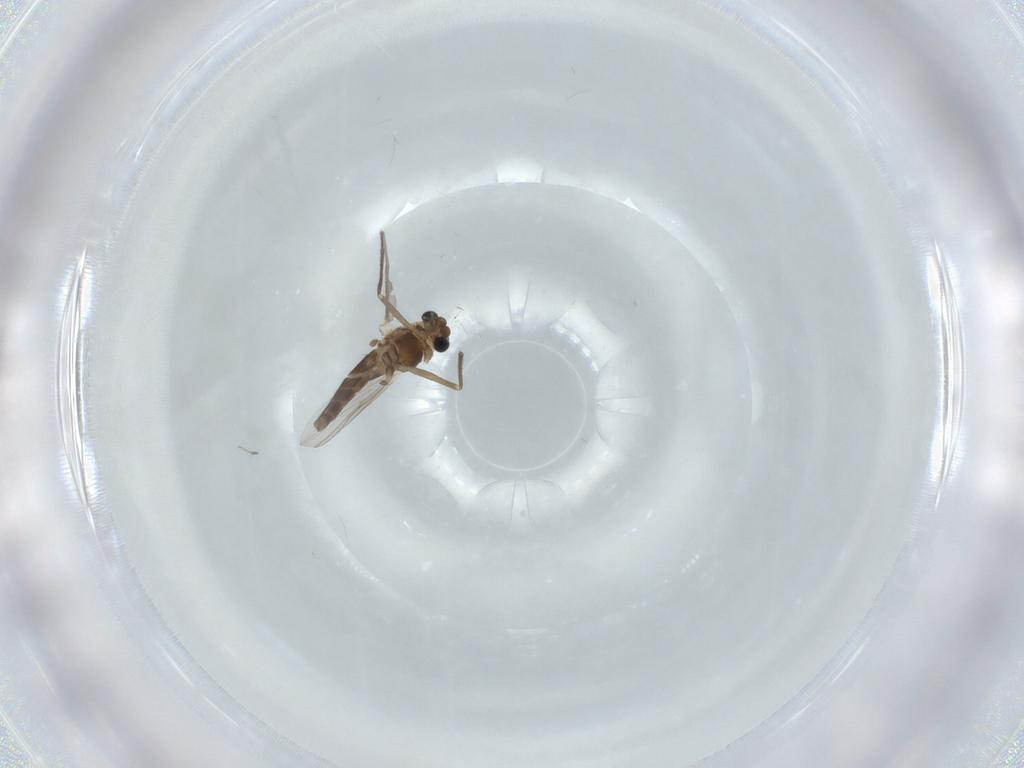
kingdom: Animalia
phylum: Arthropoda
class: Insecta
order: Diptera
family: Chironomidae
